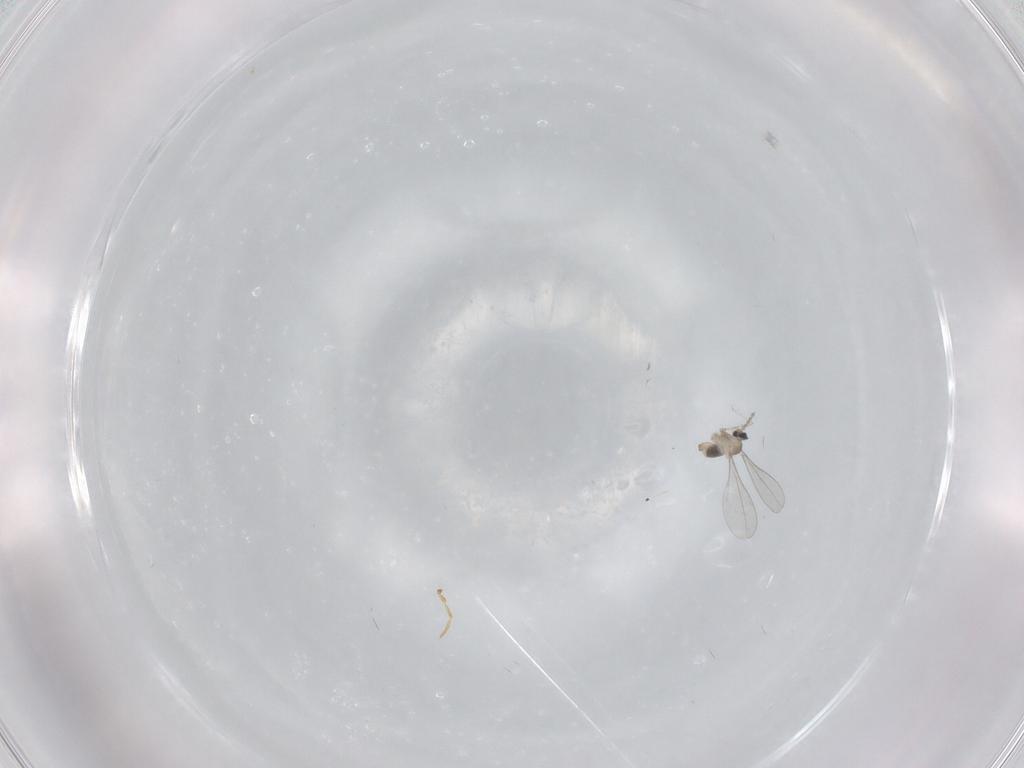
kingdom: Animalia
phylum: Arthropoda
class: Insecta
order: Diptera
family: Cecidomyiidae
